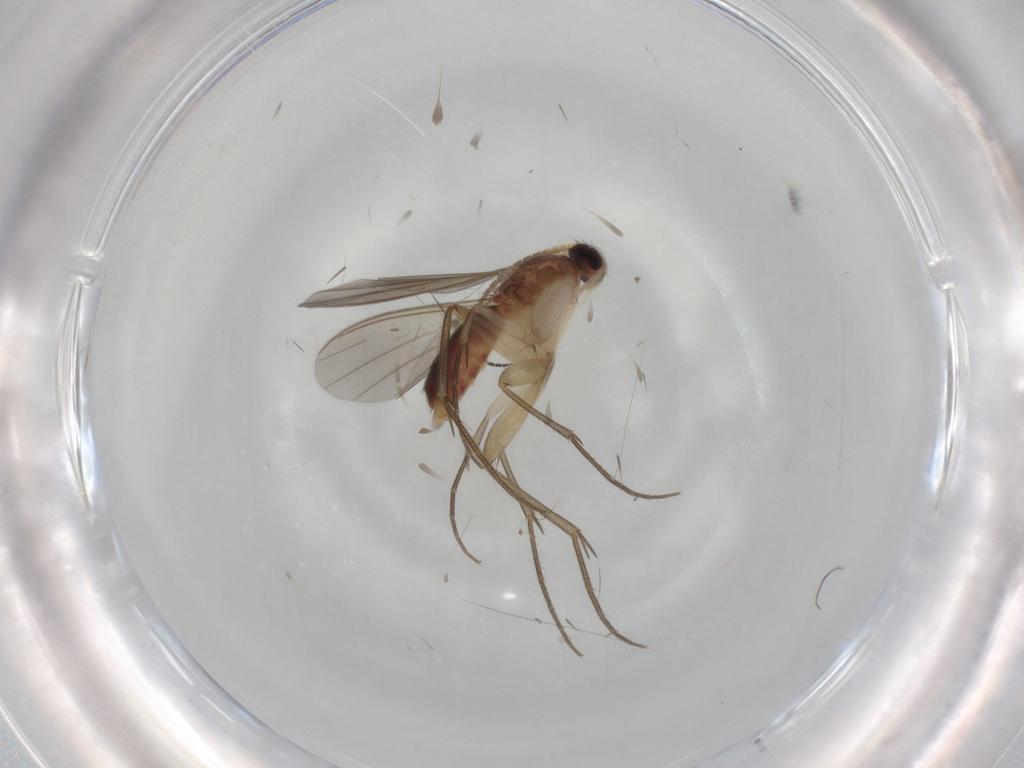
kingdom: Animalia
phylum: Arthropoda
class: Insecta
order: Diptera
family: Mycetophilidae
